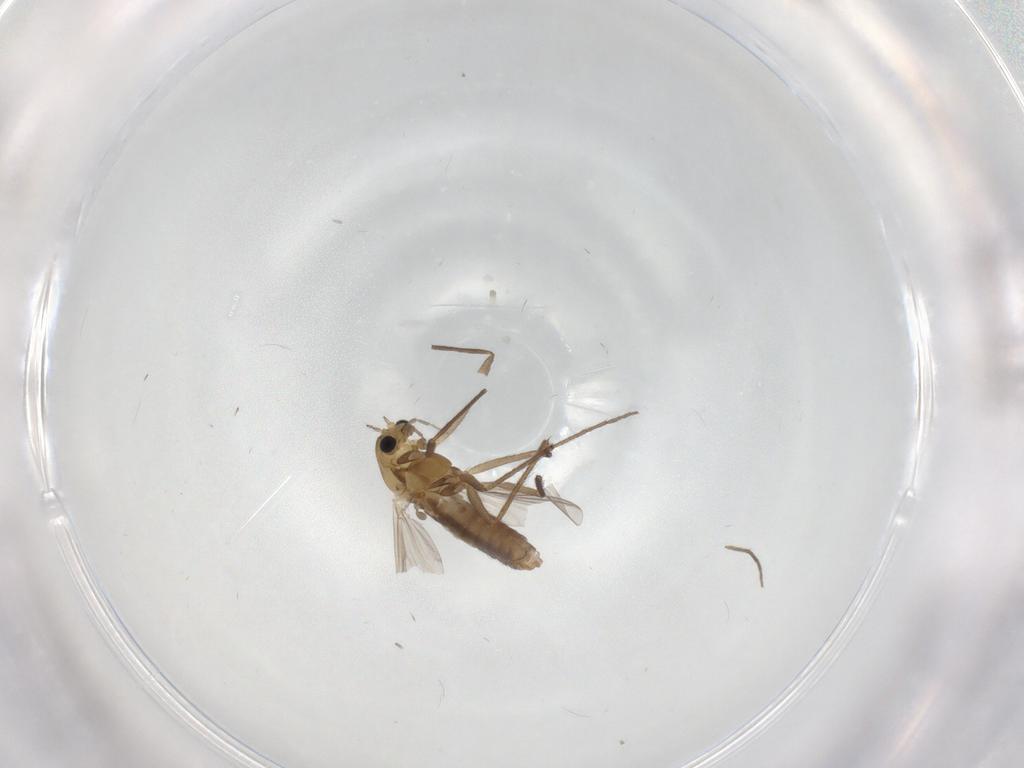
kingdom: Animalia
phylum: Arthropoda
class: Insecta
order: Diptera
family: Chironomidae
